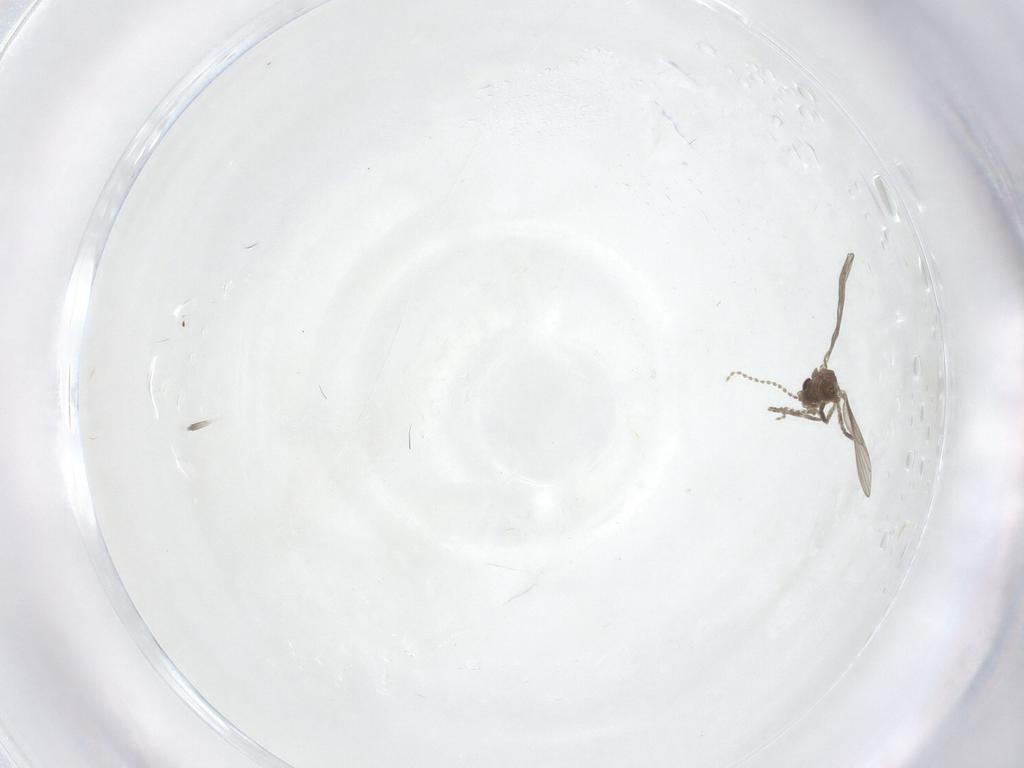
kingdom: Animalia
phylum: Arthropoda
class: Insecta
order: Diptera
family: Psychodidae
